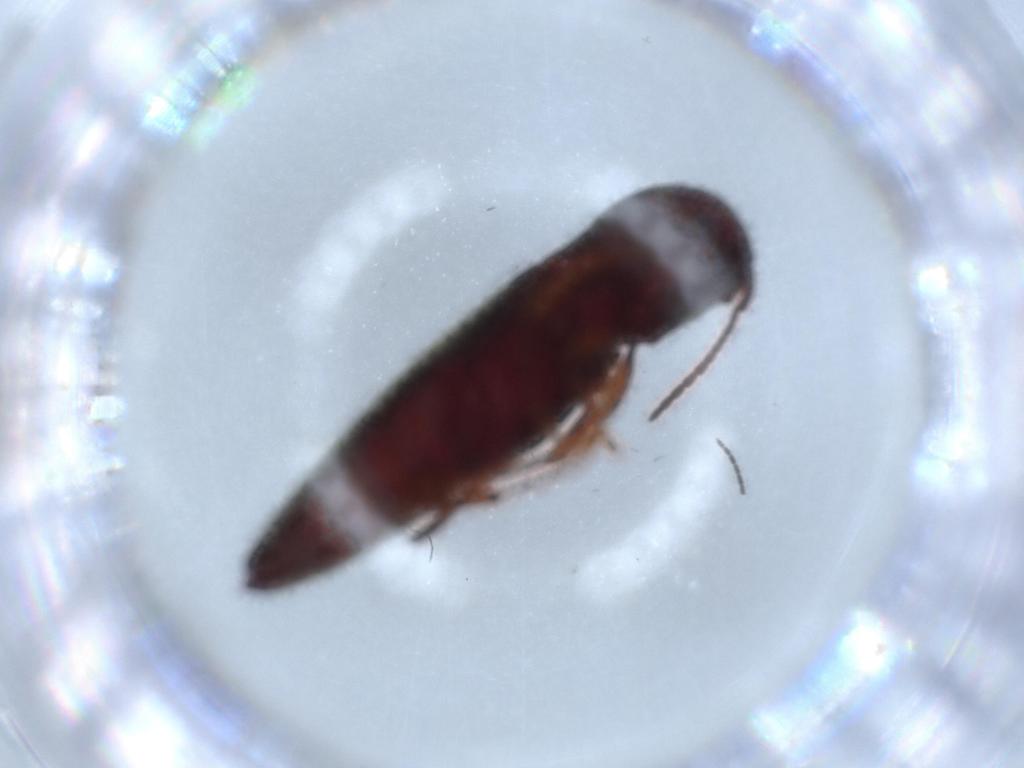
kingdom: Animalia
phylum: Arthropoda
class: Insecta
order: Coleoptera
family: Eucnemidae
